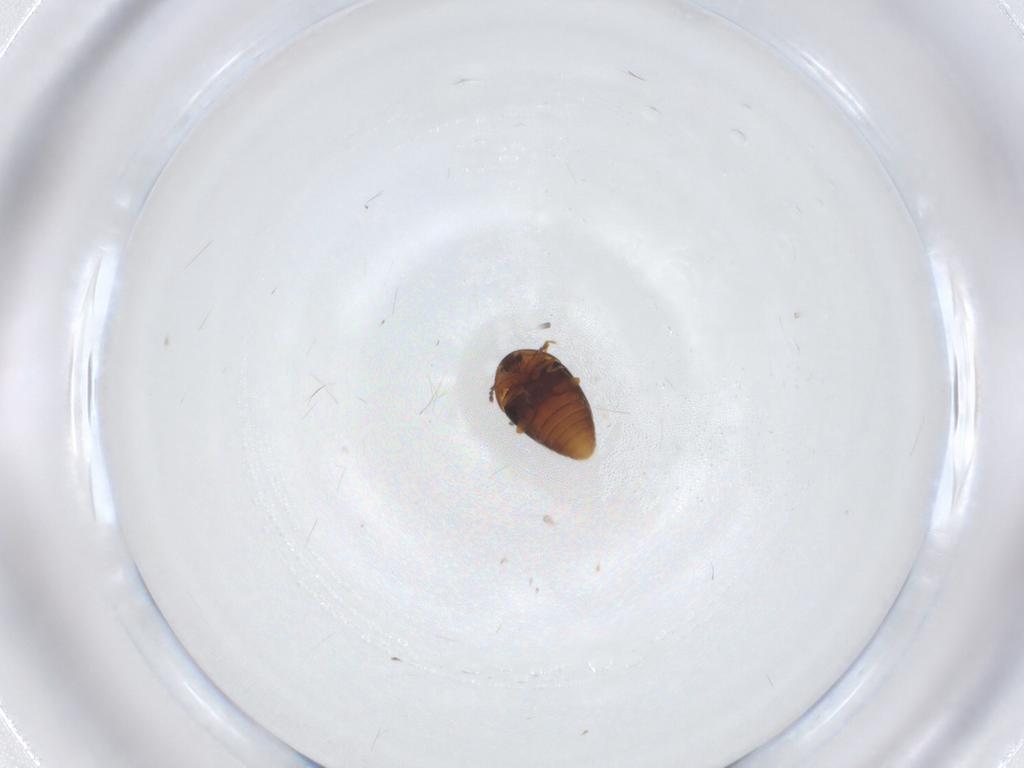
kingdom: Animalia
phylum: Arthropoda
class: Insecta
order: Coleoptera
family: Corylophidae
